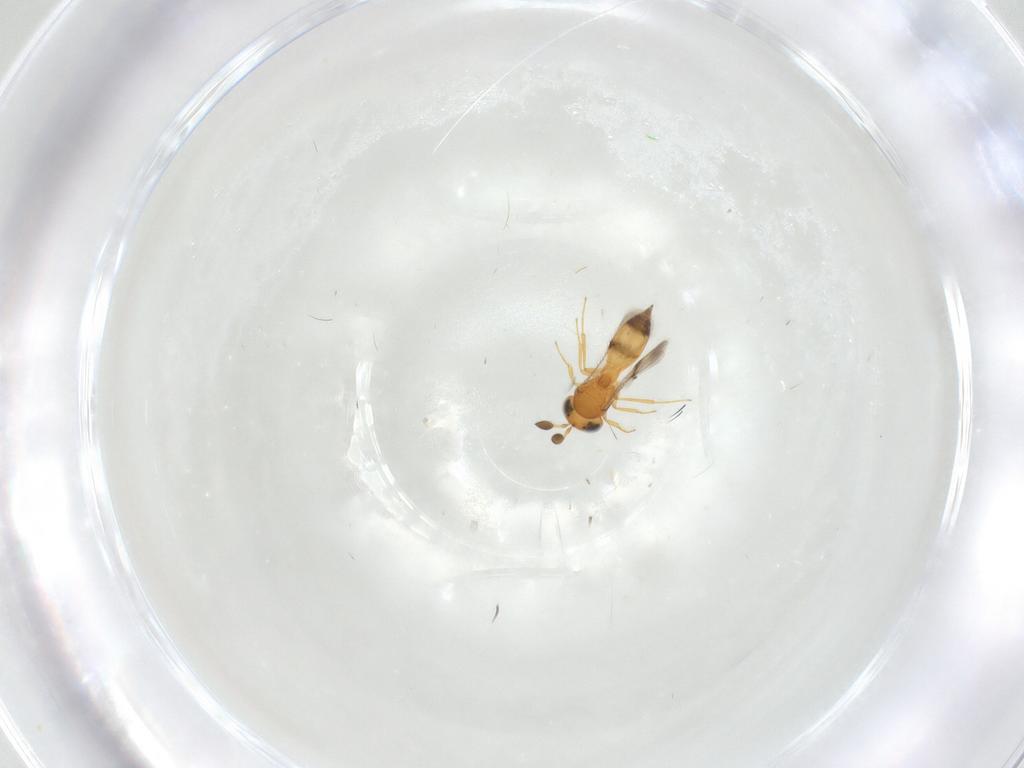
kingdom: Animalia
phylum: Arthropoda
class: Insecta
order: Hymenoptera
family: Scelionidae
